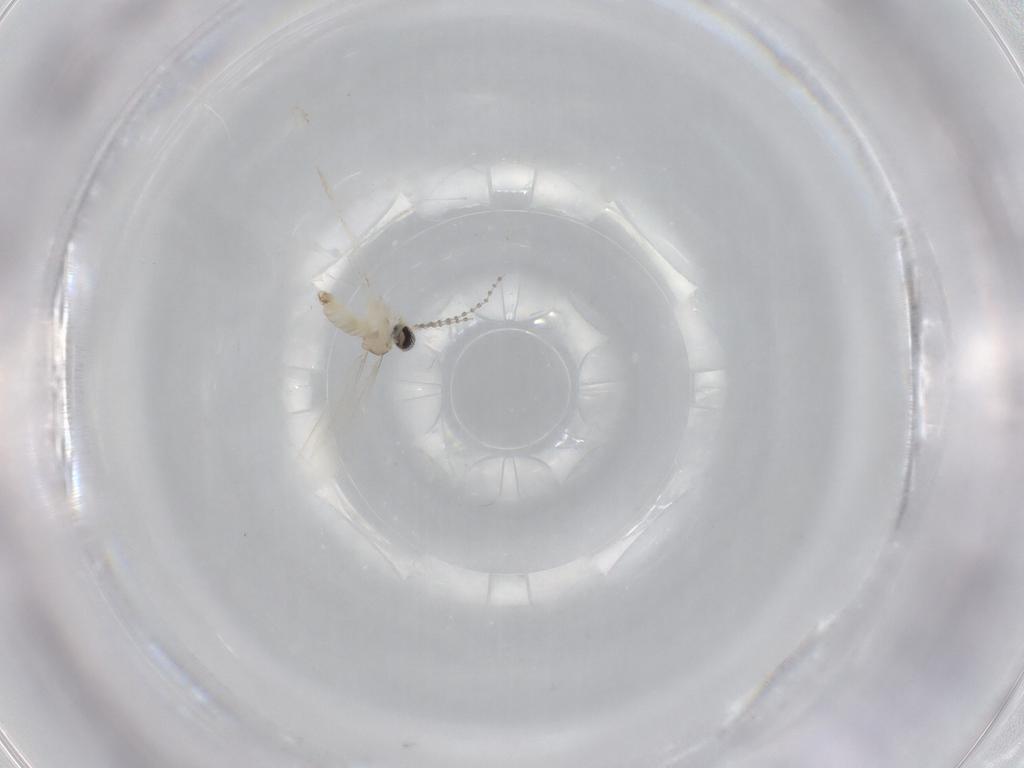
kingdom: Animalia
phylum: Arthropoda
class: Insecta
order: Diptera
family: Cecidomyiidae
